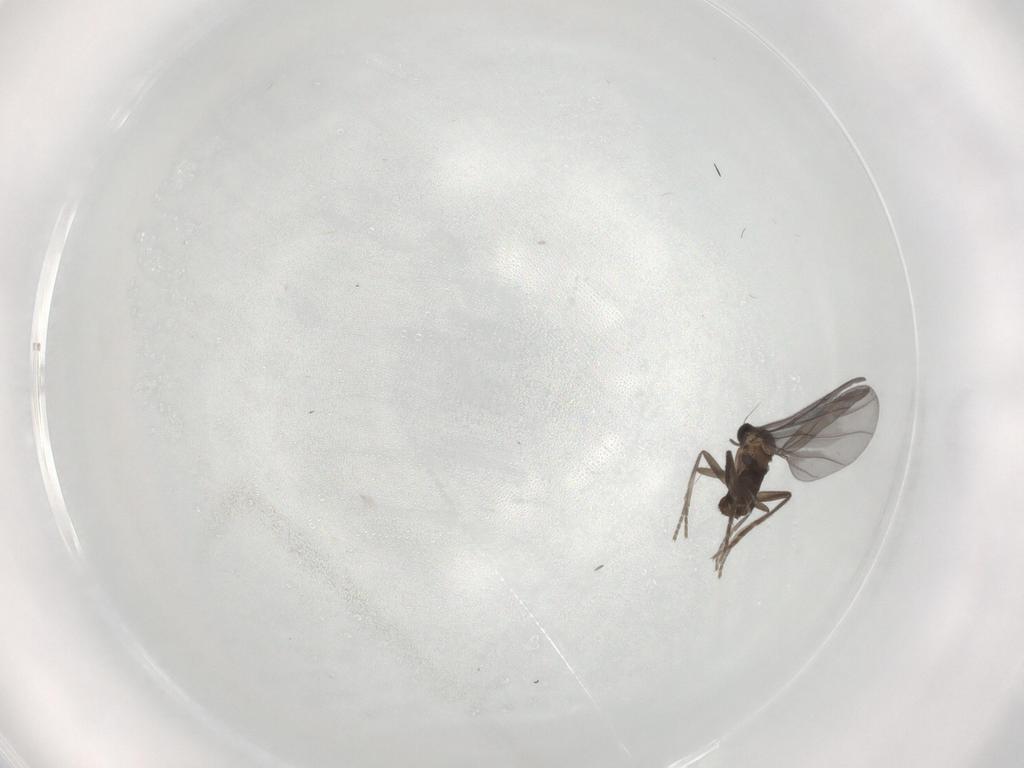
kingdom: Animalia
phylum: Arthropoda
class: Insecta
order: Diptera
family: Phoridae
